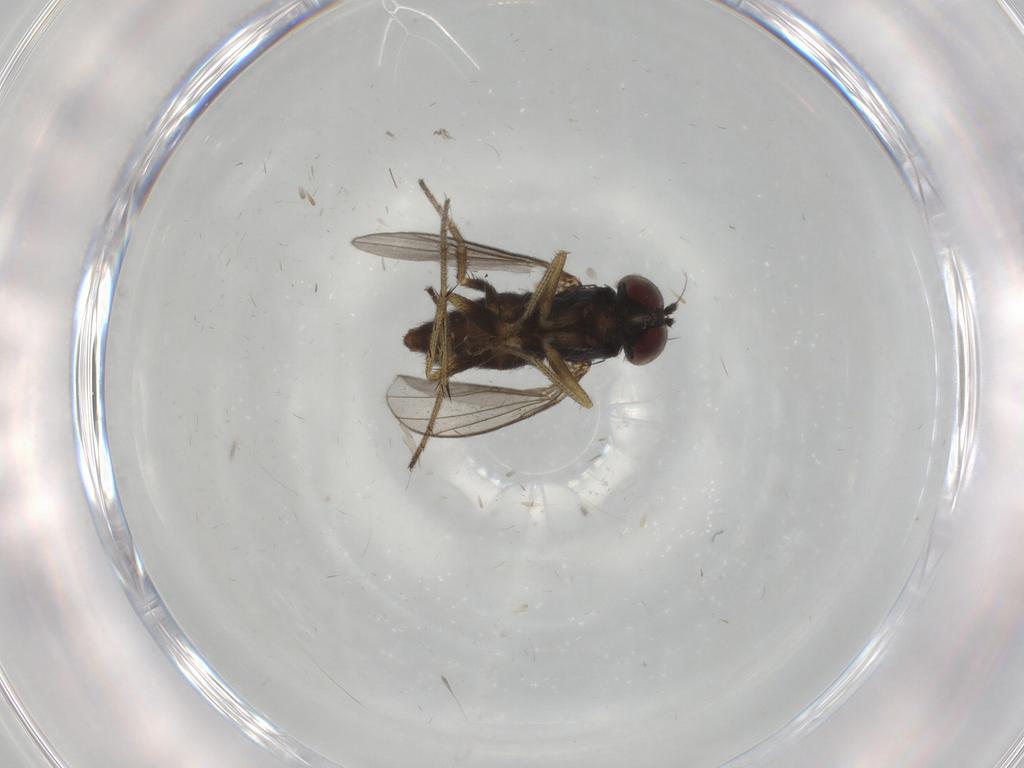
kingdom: Animalia
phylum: Arthropoda
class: Insecta
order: Diptera
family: Ceratopogonidae
